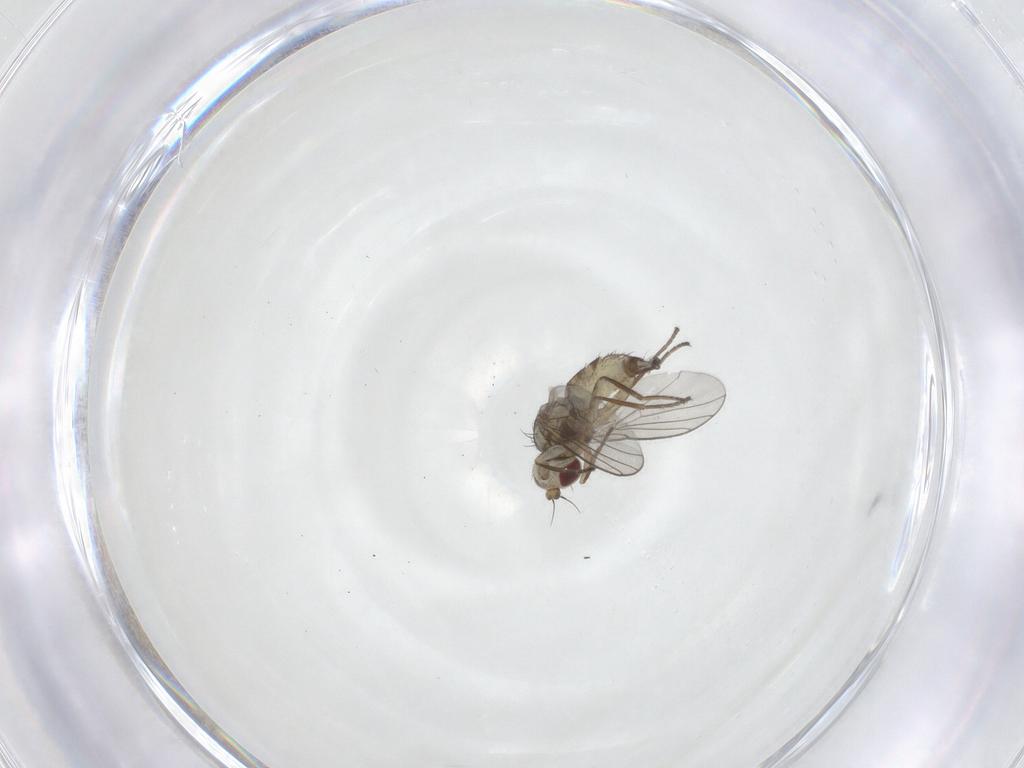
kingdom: Animalia
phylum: Arthropoda
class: Insecta
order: Diptera
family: Agromyzidae
